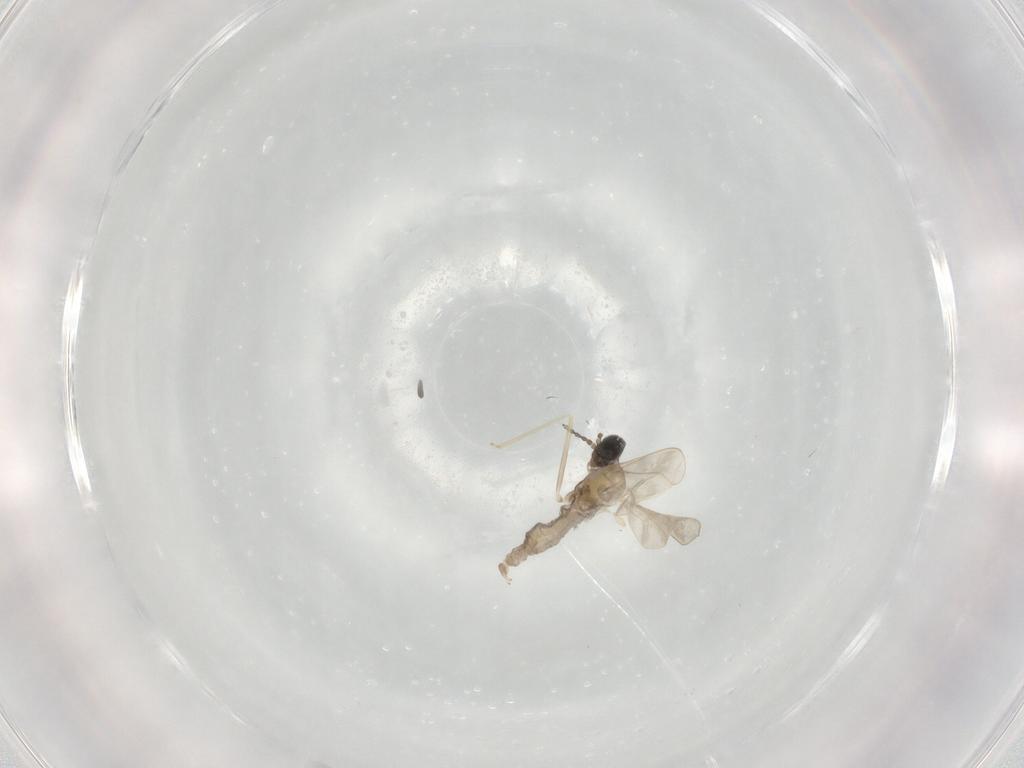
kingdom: Animalia
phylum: Arthropoda
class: Insecta
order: Diptera
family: Cecidomyiidae
